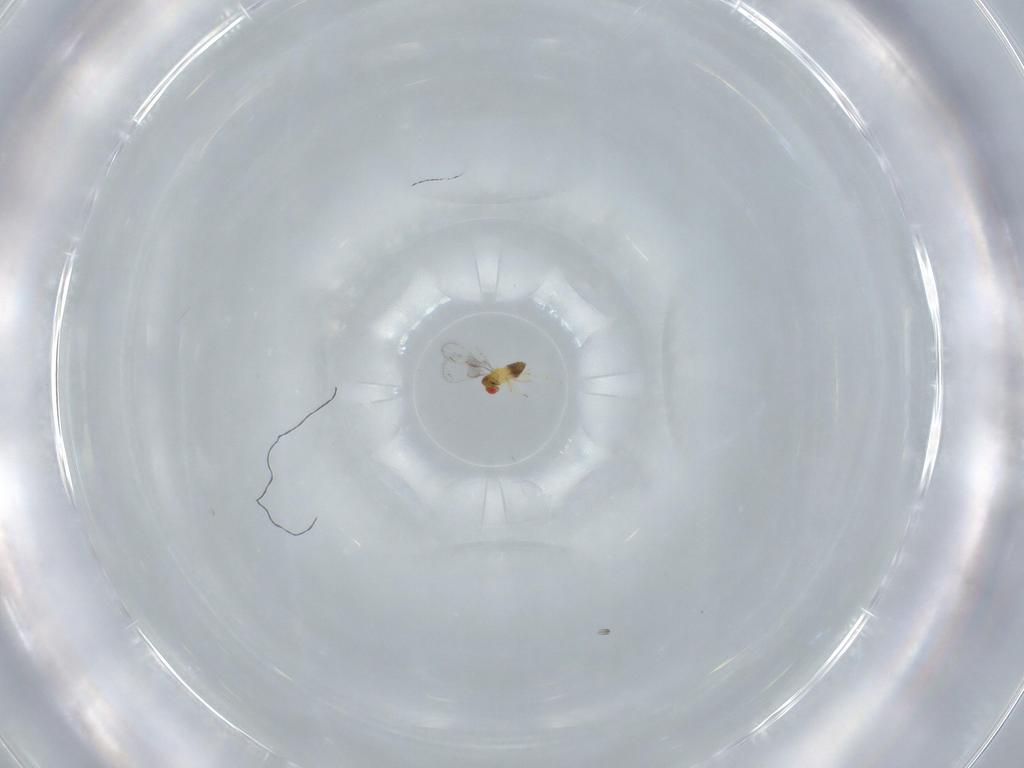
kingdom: Animalia
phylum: Arthropoda
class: Insecta
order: Hymenoptera
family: Trichogrammatidae
